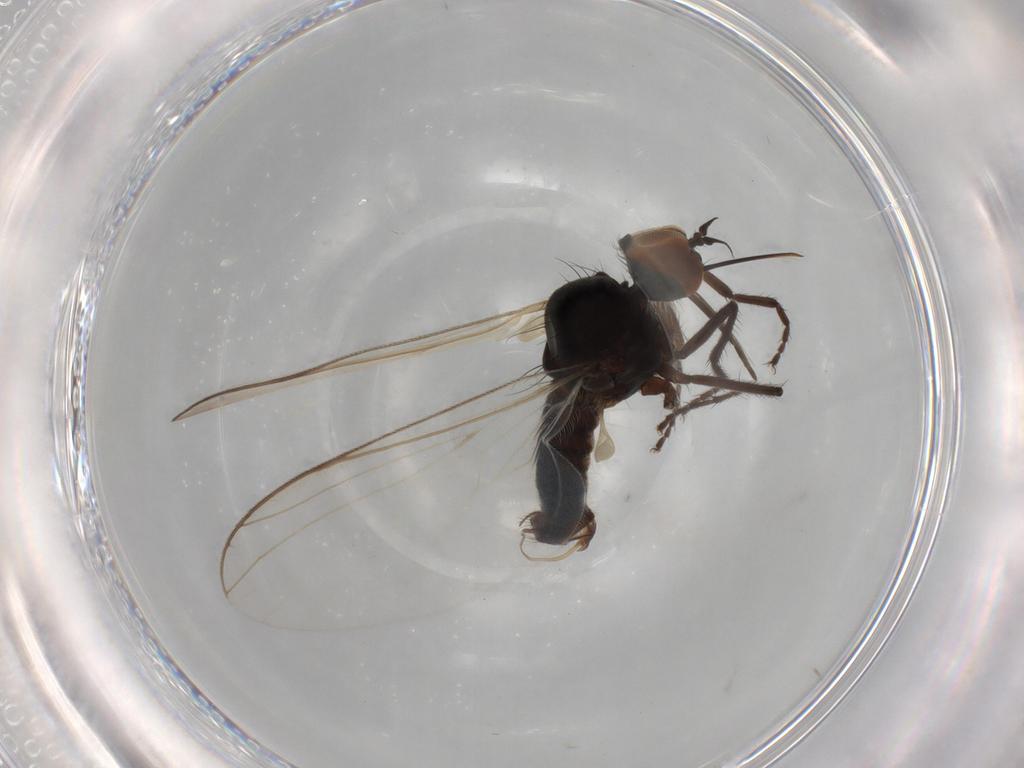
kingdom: Animalia
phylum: Arthropoda
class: Insecta
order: Diptera
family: Empididae
